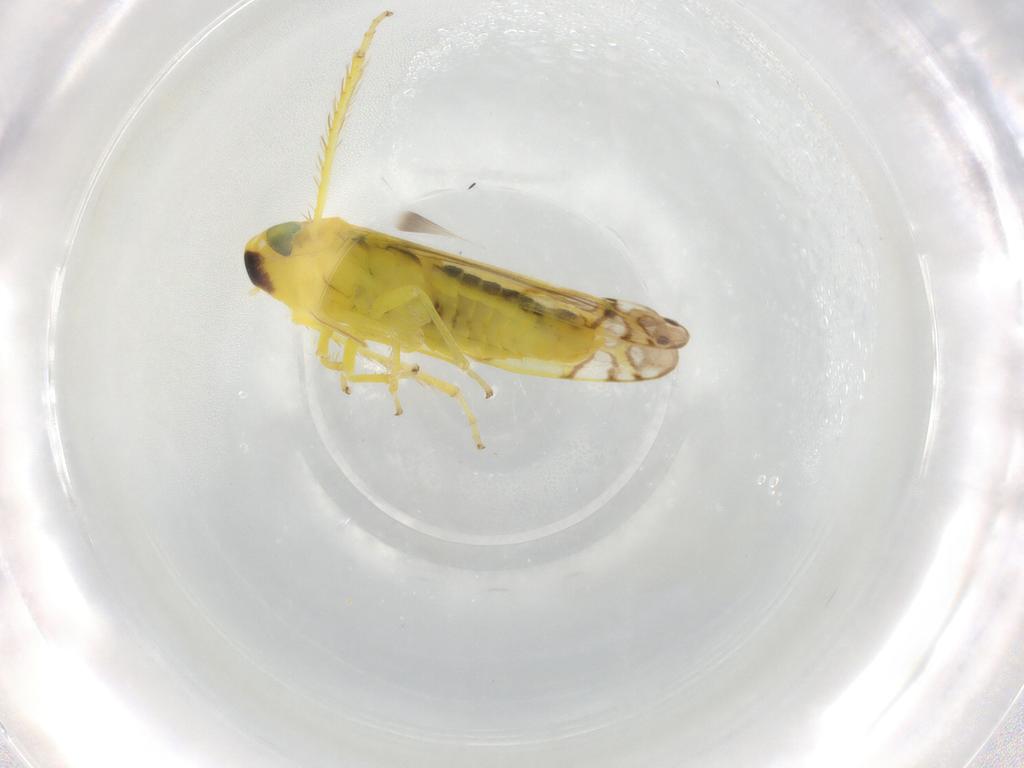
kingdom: Animalia
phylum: Arthropoda
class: Insecta
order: Hemiptera
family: Cicadellidae
